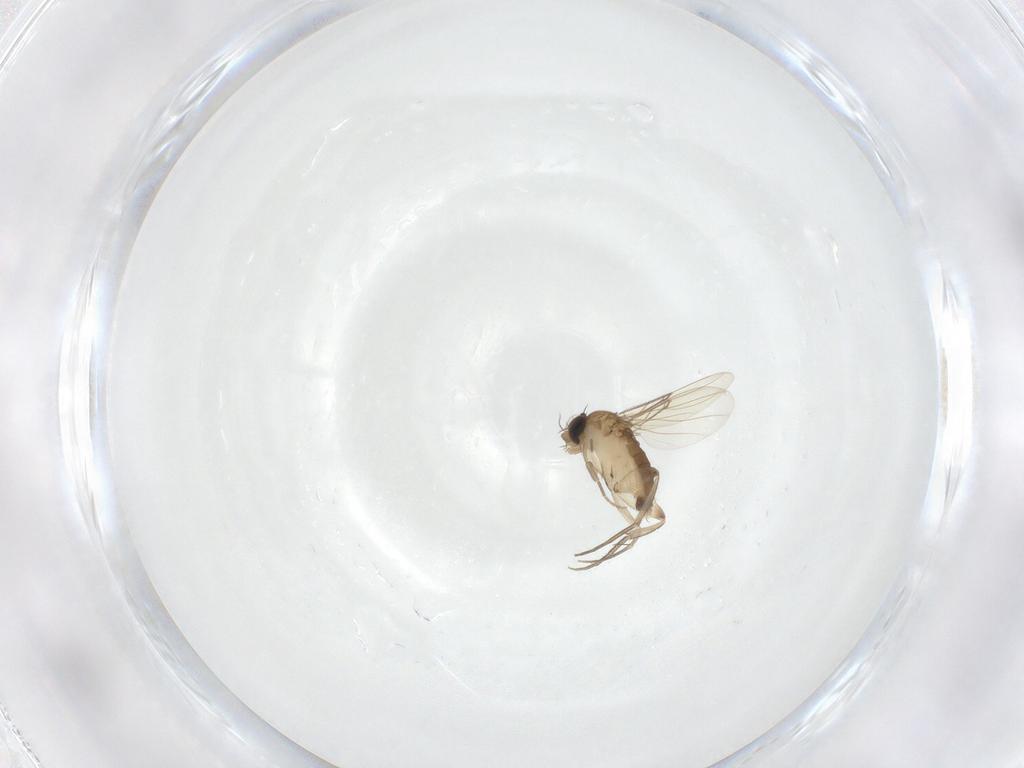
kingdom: Animalia
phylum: Arthropoda
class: Insecta
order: Diptera
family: Phoridae
